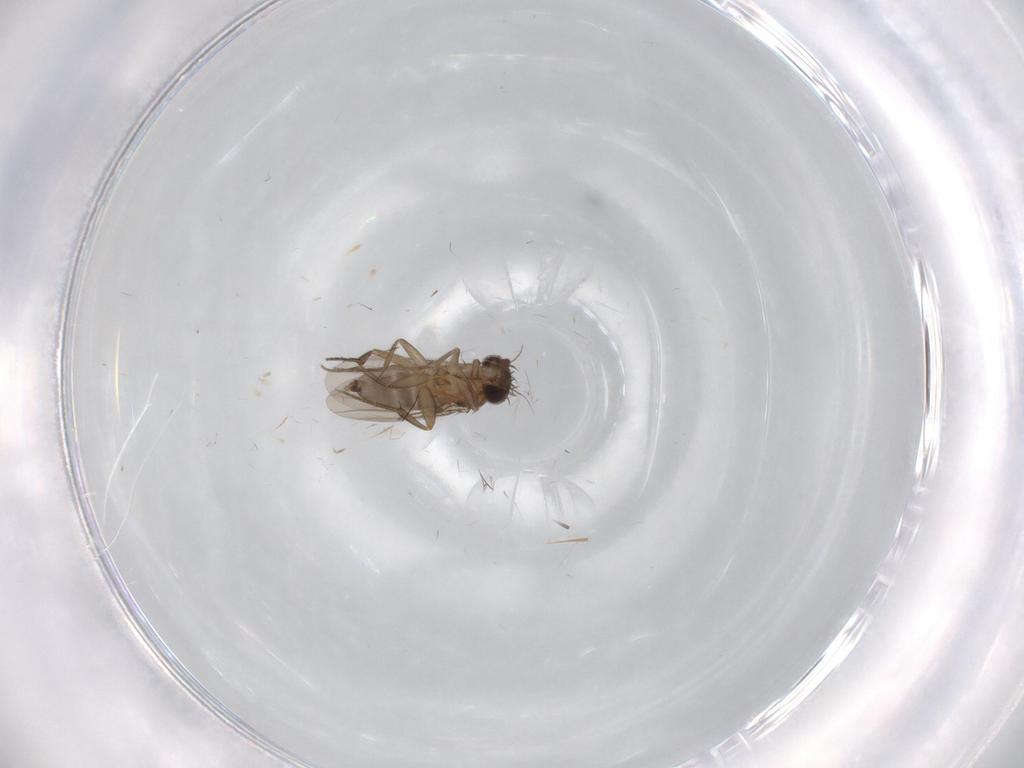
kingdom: Animalia
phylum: Arthropoda
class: Insecta
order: Diptera
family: Phoridae
